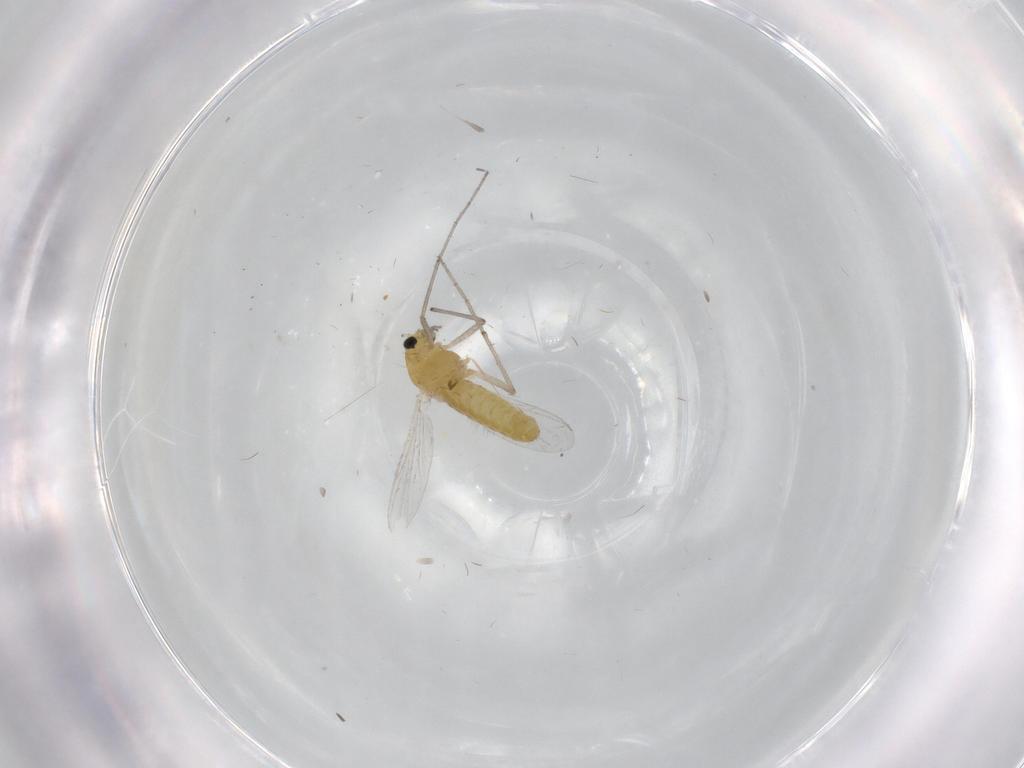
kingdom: Animalia
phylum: Arthropoda
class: Insecta
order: Diptera
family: Chironomidae
